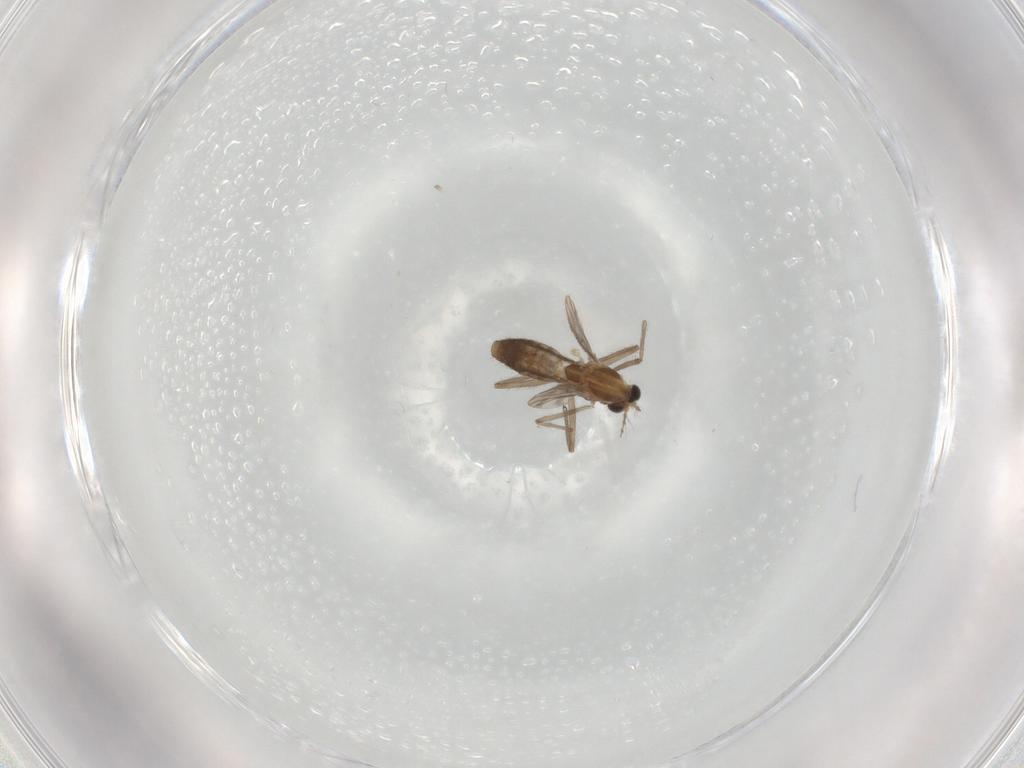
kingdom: Animalia
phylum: Arthropoda
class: Insecta
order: Diptera
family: Chironomidae
